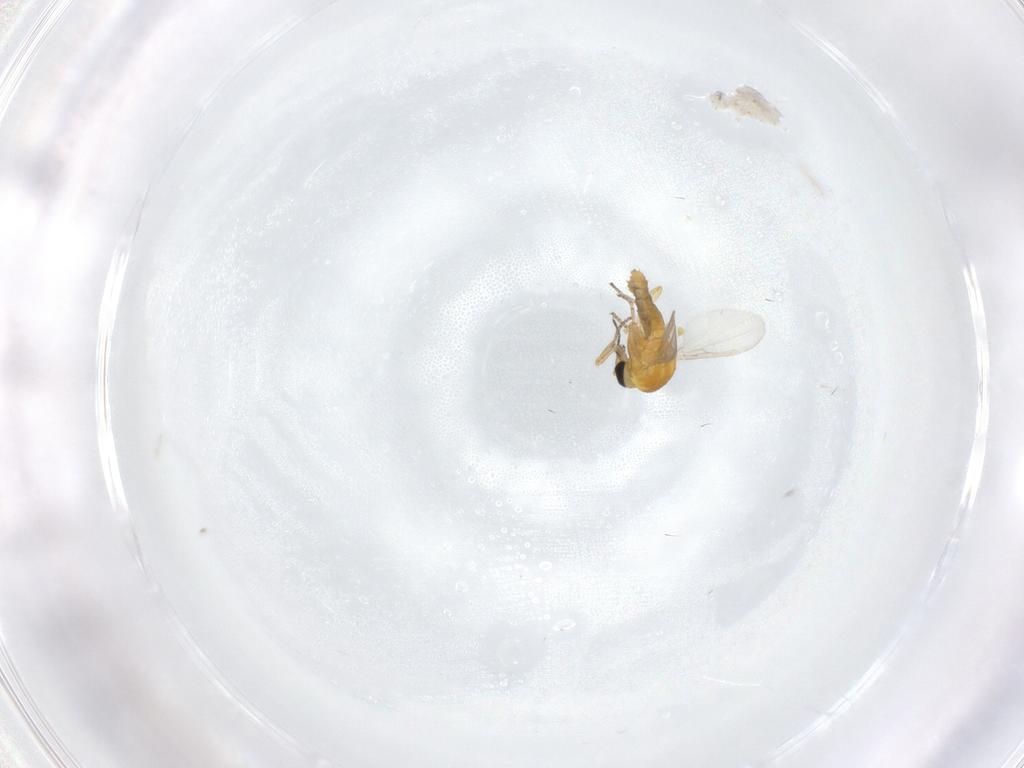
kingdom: Animalia
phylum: Arthropoda
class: Insecta
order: Diptera
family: Ceratopogonidae
